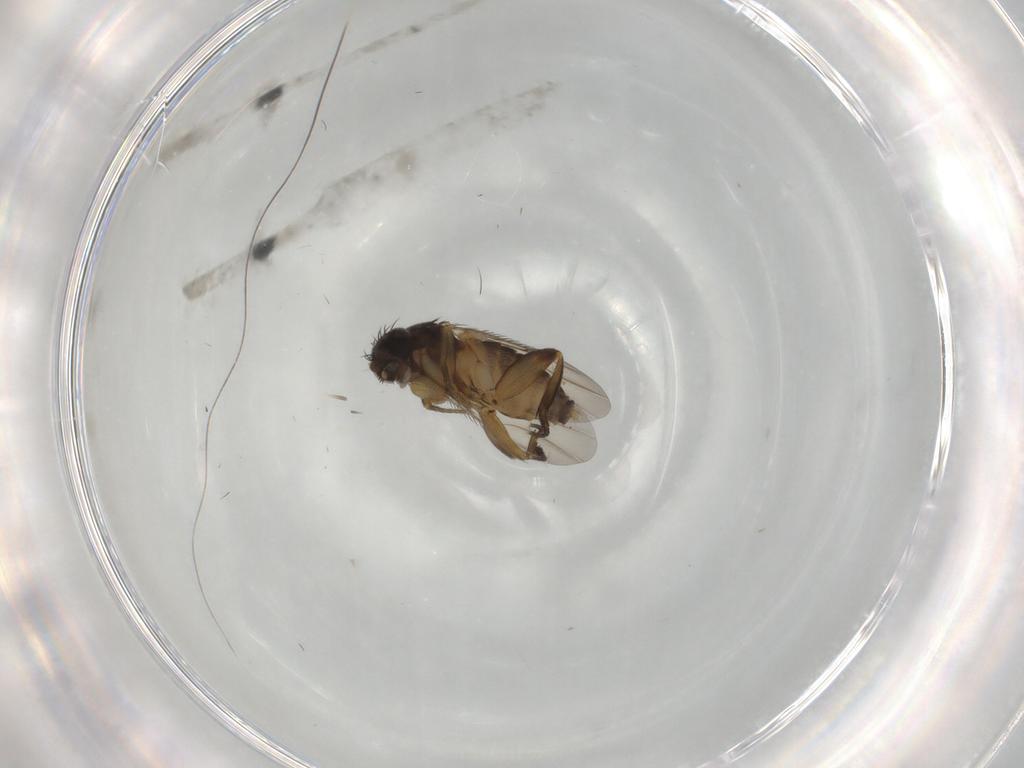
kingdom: Animalia
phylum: Arthropoda
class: Insecta
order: Diptera
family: Phoridae
